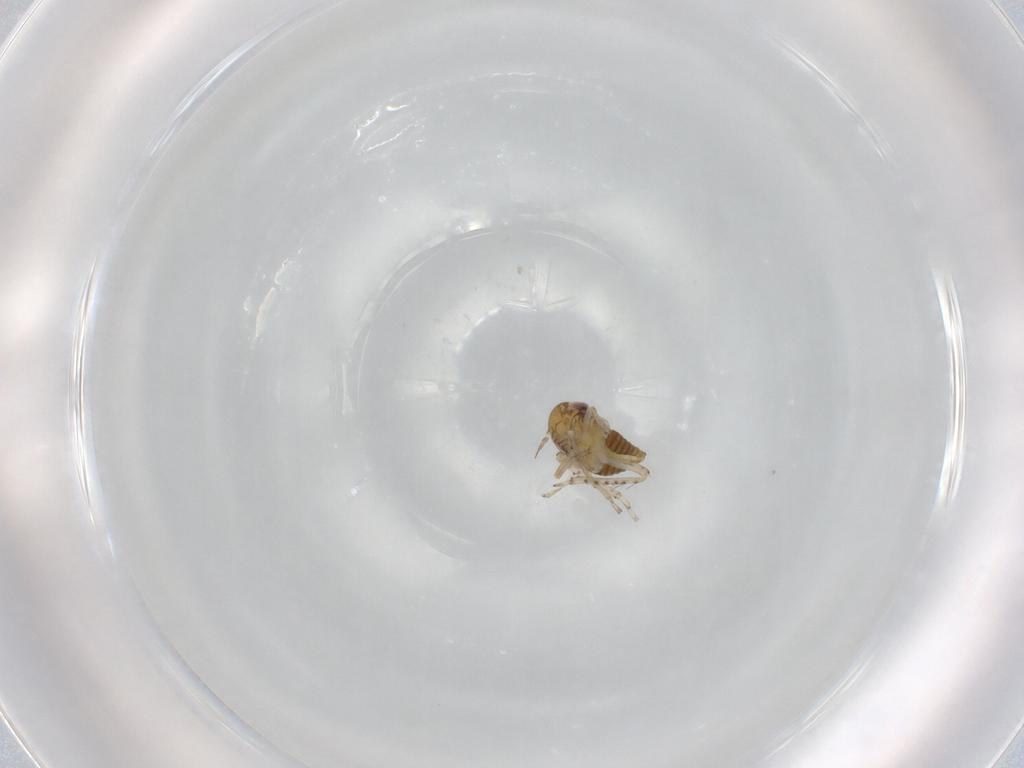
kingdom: Animalia
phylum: Arthropoda
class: Insecta
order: Hemiptera
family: Cicadellidae
